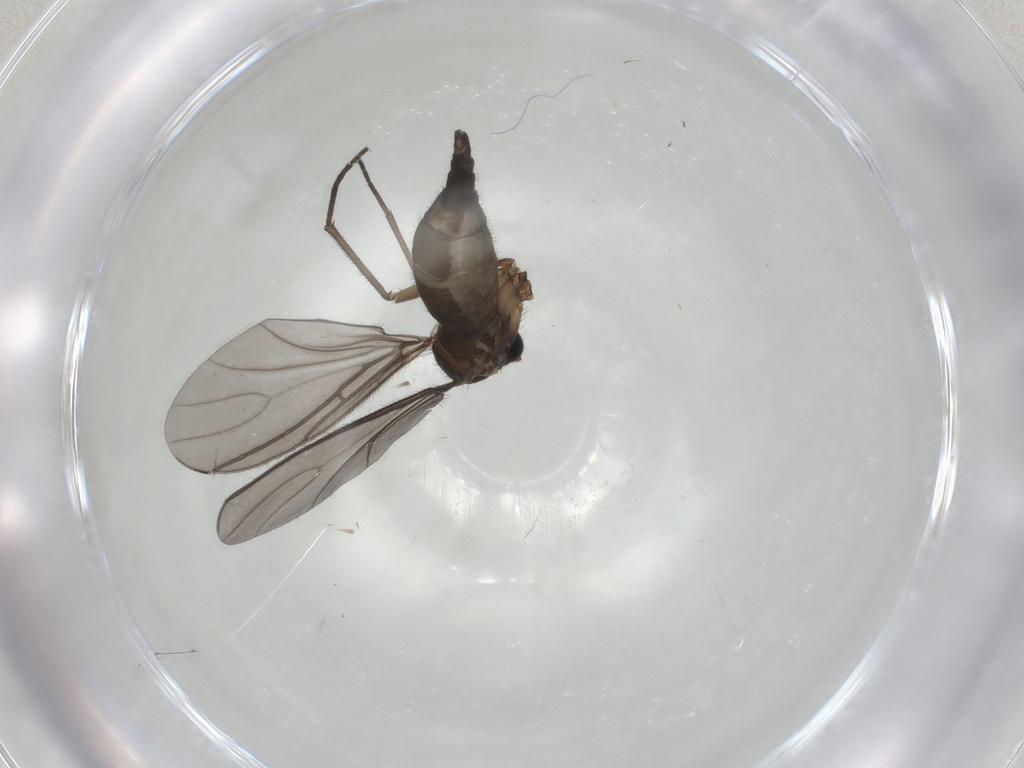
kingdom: Animalia
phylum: Arthropoda
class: Insecta
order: Diptera
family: Sciaridae
